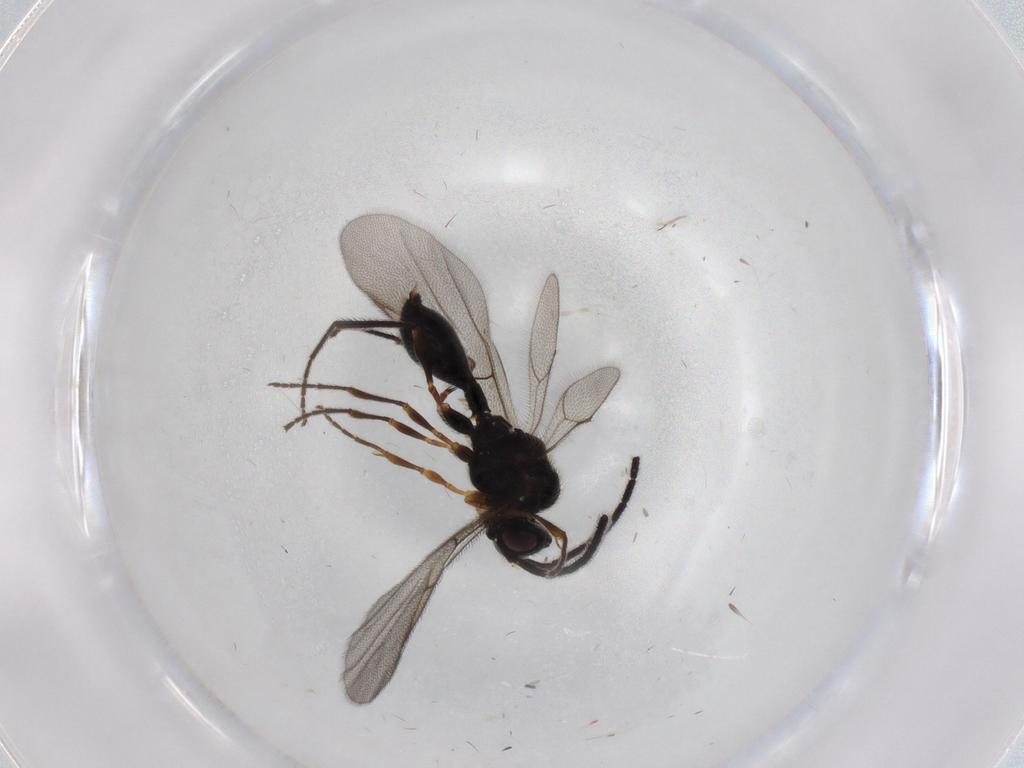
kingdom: Animalia
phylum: Arthropoda
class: Insecta
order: Hymenoptera
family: Diapriidae
